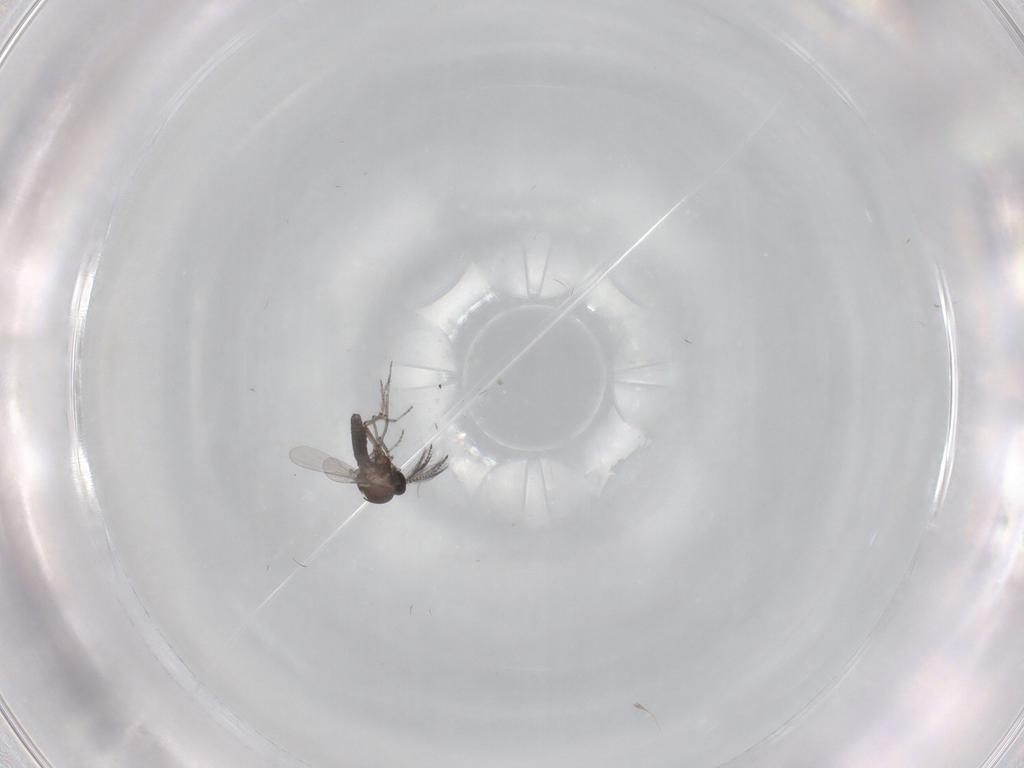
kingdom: Animalia
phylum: Arthropoda
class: Insecta
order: Diptera
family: Ceratopogonidae
